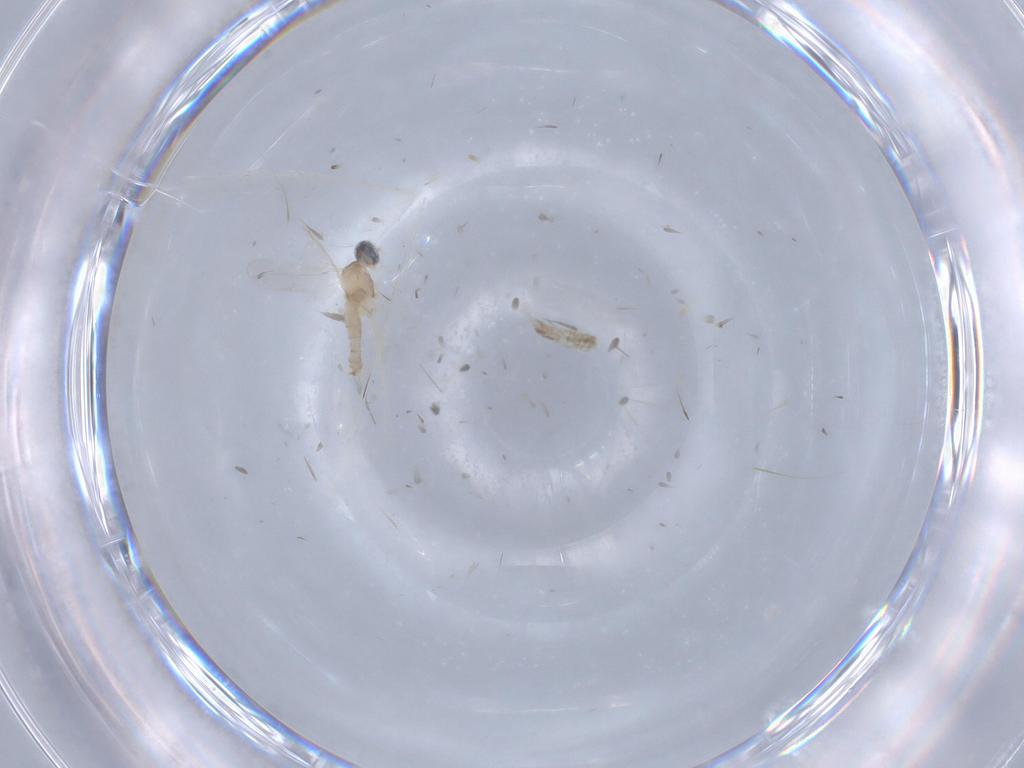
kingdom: Animalia
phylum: Arthropoda
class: Insecta
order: Diptera
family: Cecidomyiidae
